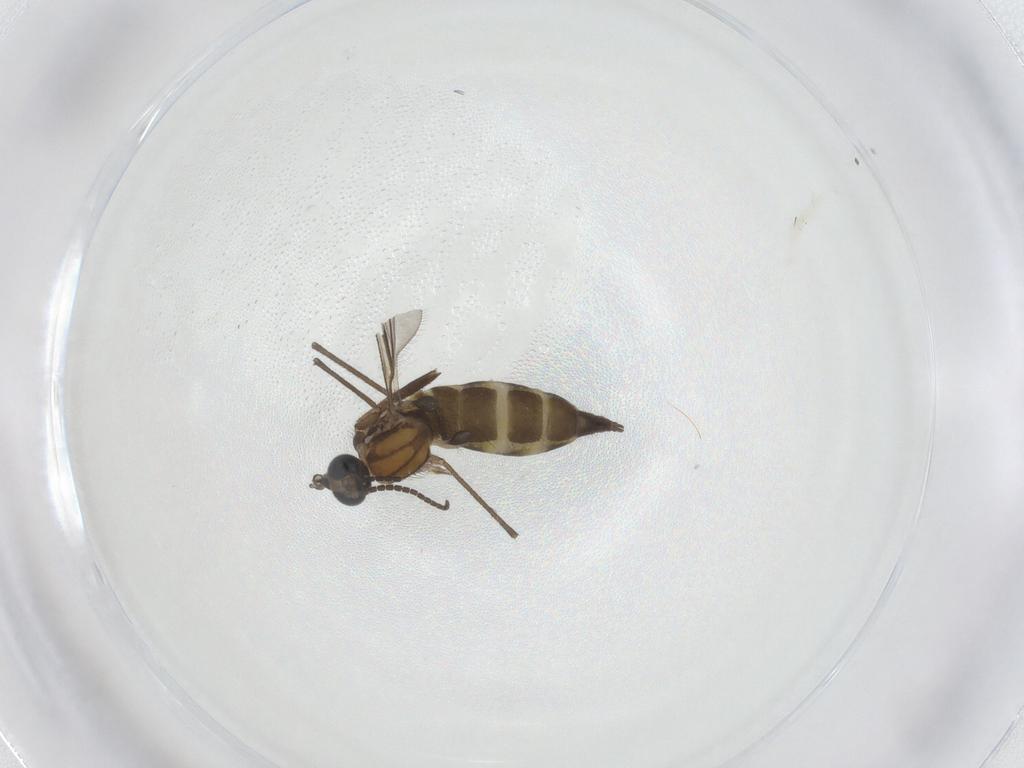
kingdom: Animalia
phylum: Arthropoda
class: Insecta
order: Diptera
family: Sciaridae
